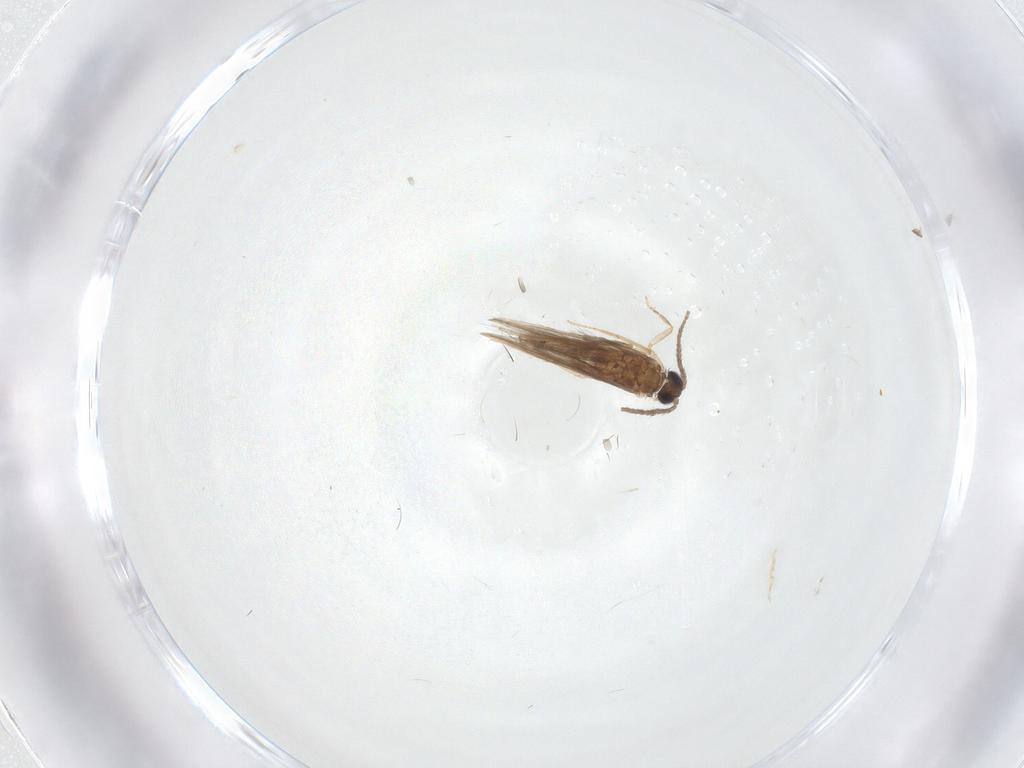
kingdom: Animalia
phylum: Arthropoda
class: Insecta
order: Trichoptera
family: Hydroptilidae
